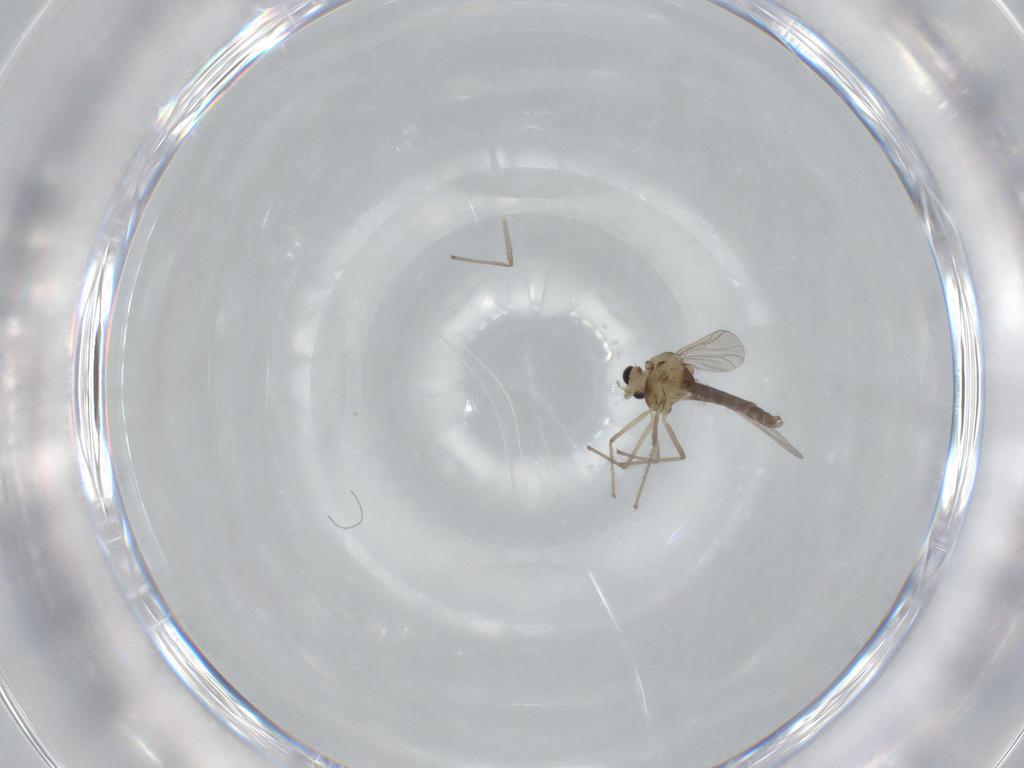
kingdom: Animalia
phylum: Arthropoda
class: Insecta
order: Diptera
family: Chironomidae
